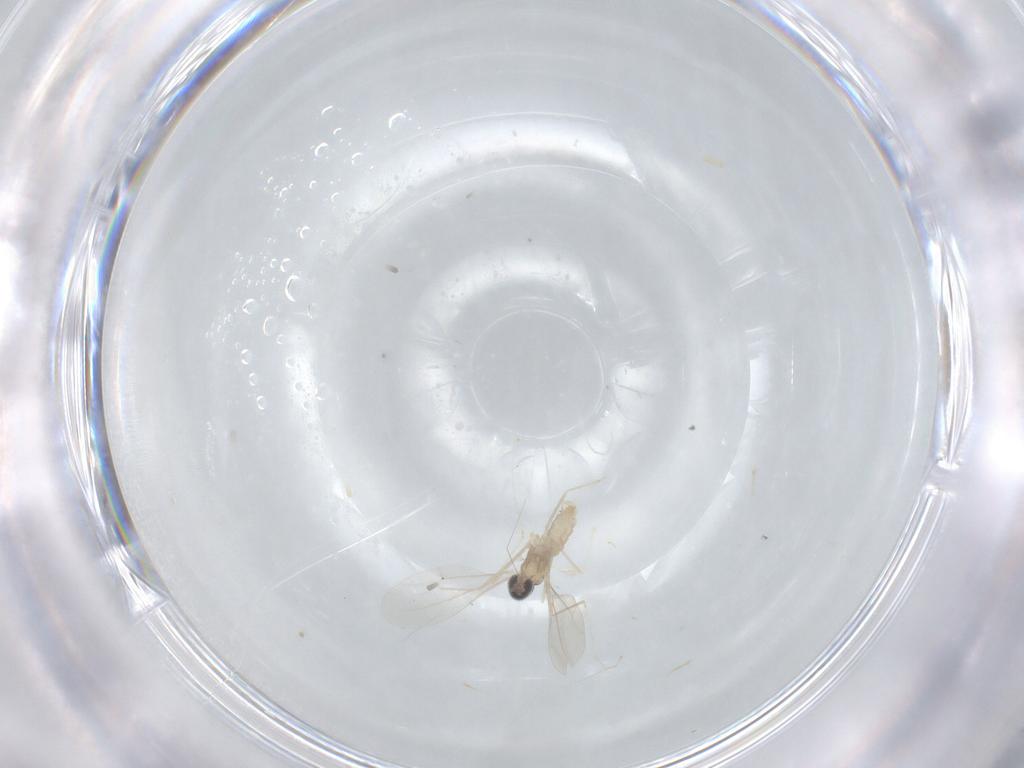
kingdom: Animalia
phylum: Arthropoda
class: Insecta
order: Diptera
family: Cecidomyiidae
